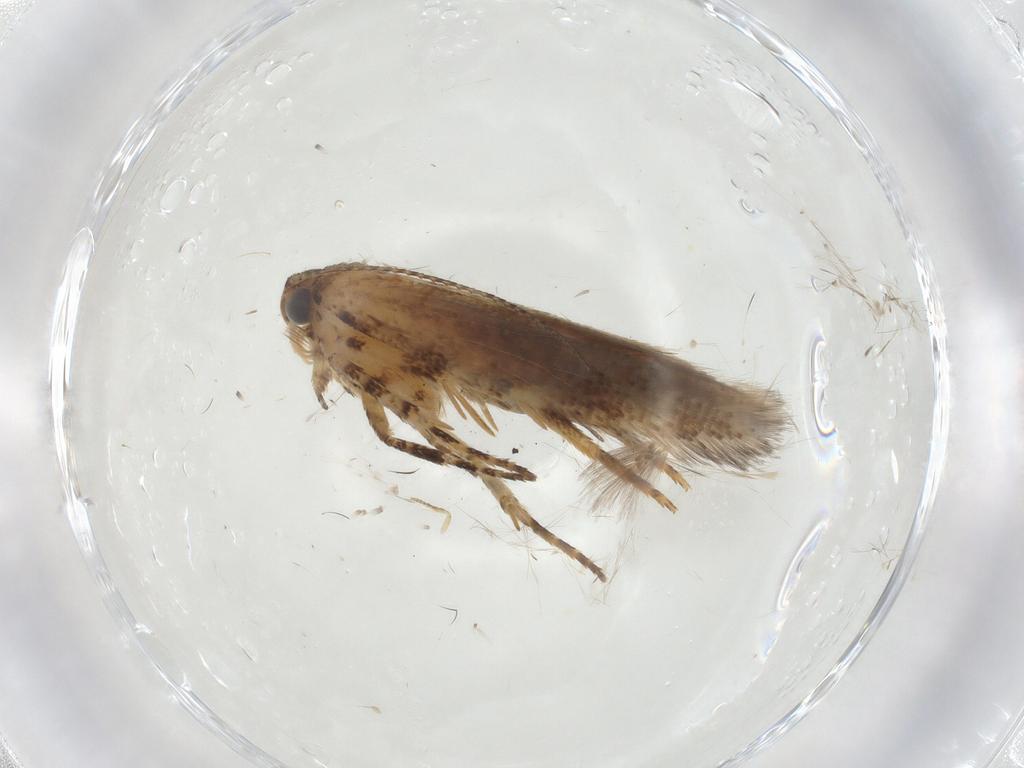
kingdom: Animalia
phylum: Arthropoda
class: Insecta
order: Lepidoptera
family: Gelechiidae
